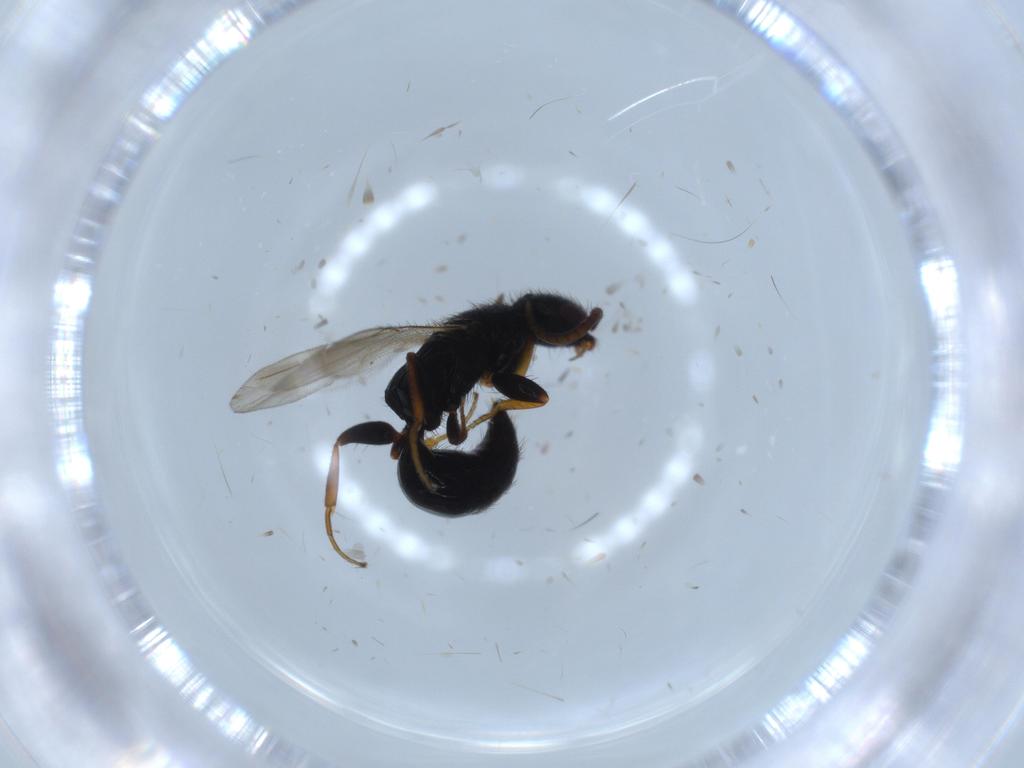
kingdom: Animalia
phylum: Arthropoda
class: Insecta
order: Hymenoptera
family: Bethylidae
